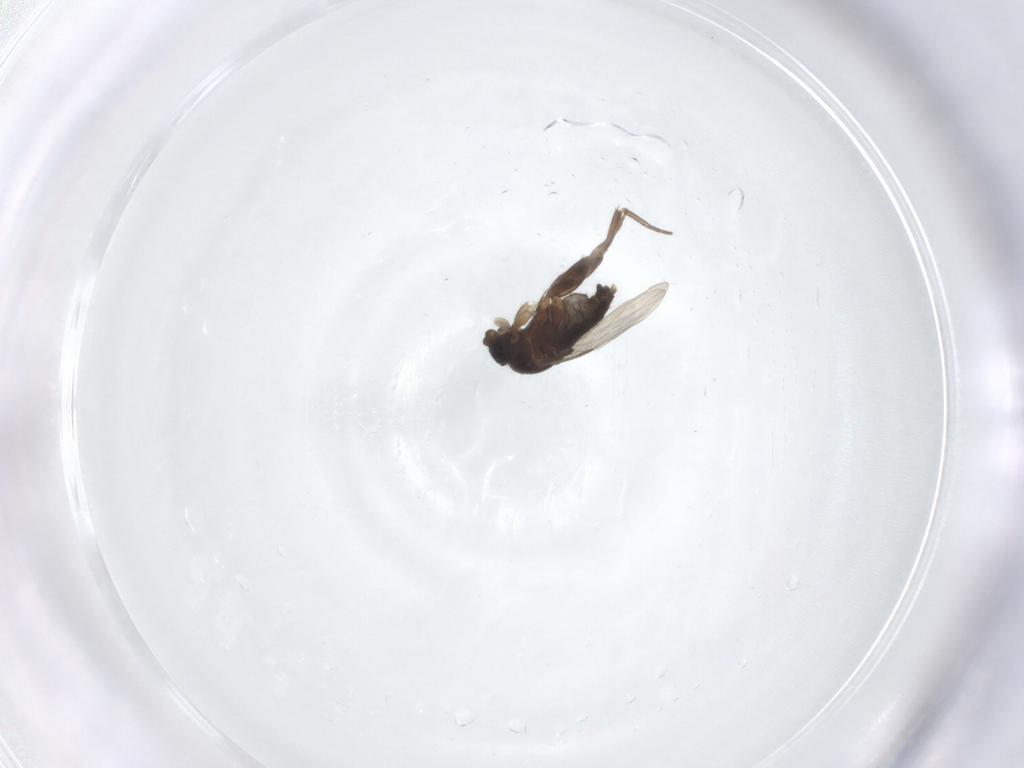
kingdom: Animalia
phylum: Arthropoda
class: Insecta
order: Diptera
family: Phoridae
